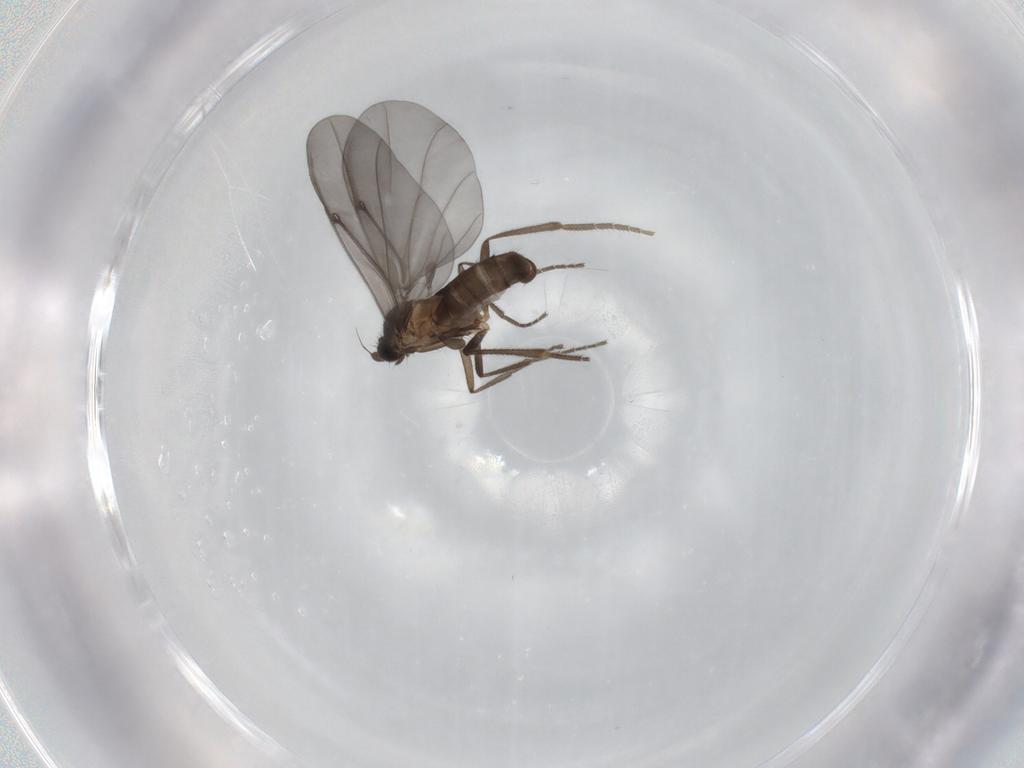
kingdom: Animalia
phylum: Arthropoda
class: Insecta
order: Diptera
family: Phoridae
